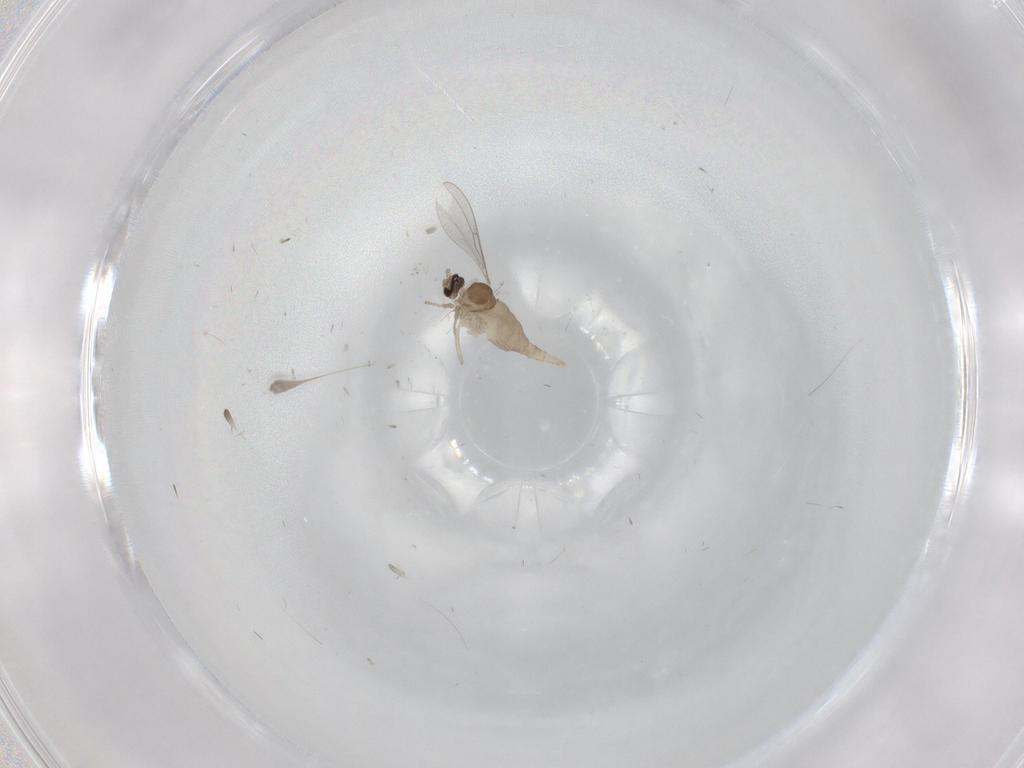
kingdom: Animalia
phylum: Arthropoda
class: Insecta
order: Diptera
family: Cecidomyiidae
